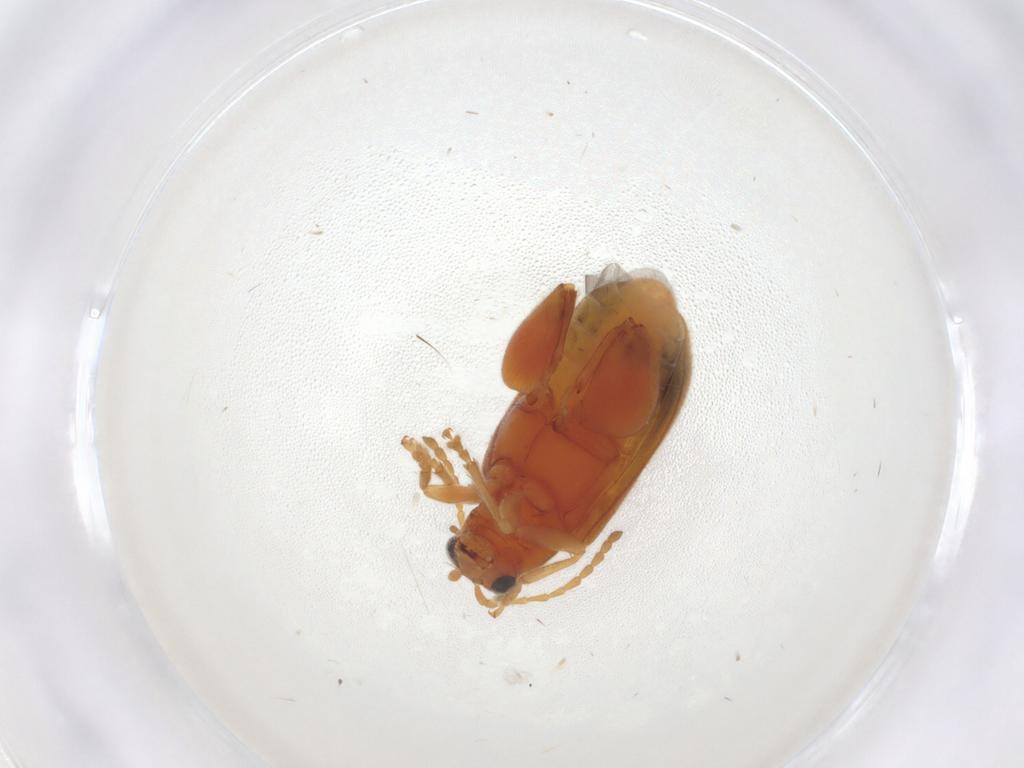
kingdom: Animalia
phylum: Arthropoda
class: Insecta
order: Coleoptera
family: Chrysomelidae
